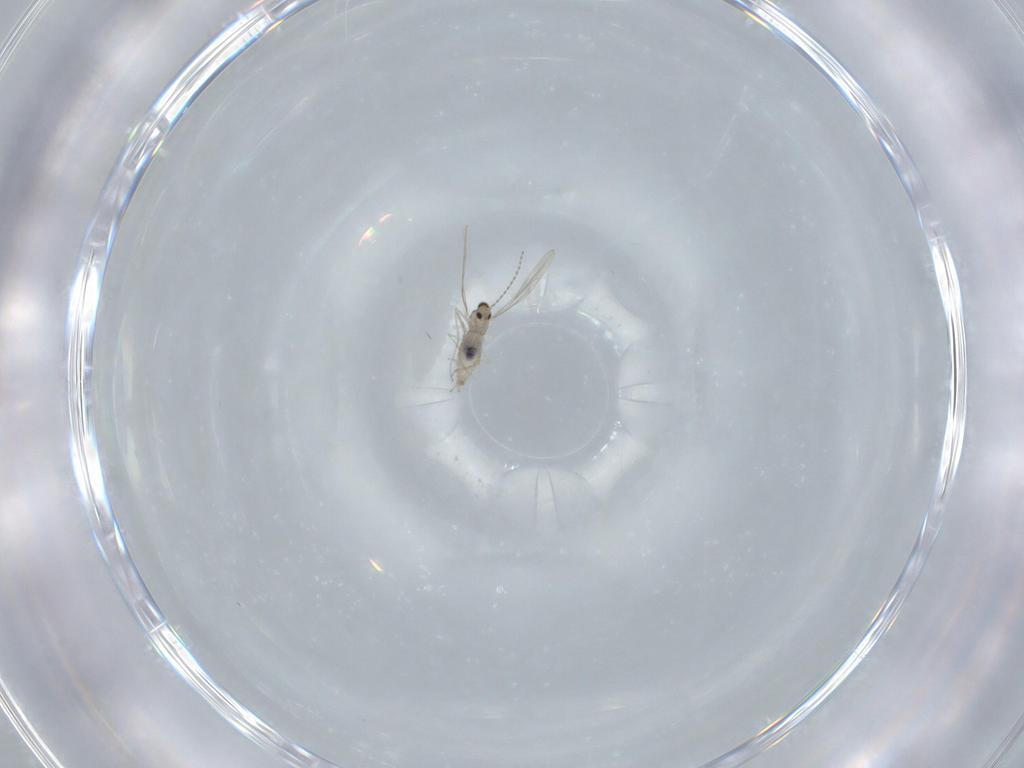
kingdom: Animalia
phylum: Arthropoda
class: Insecta
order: Diptera
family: Cecidomyiidae
